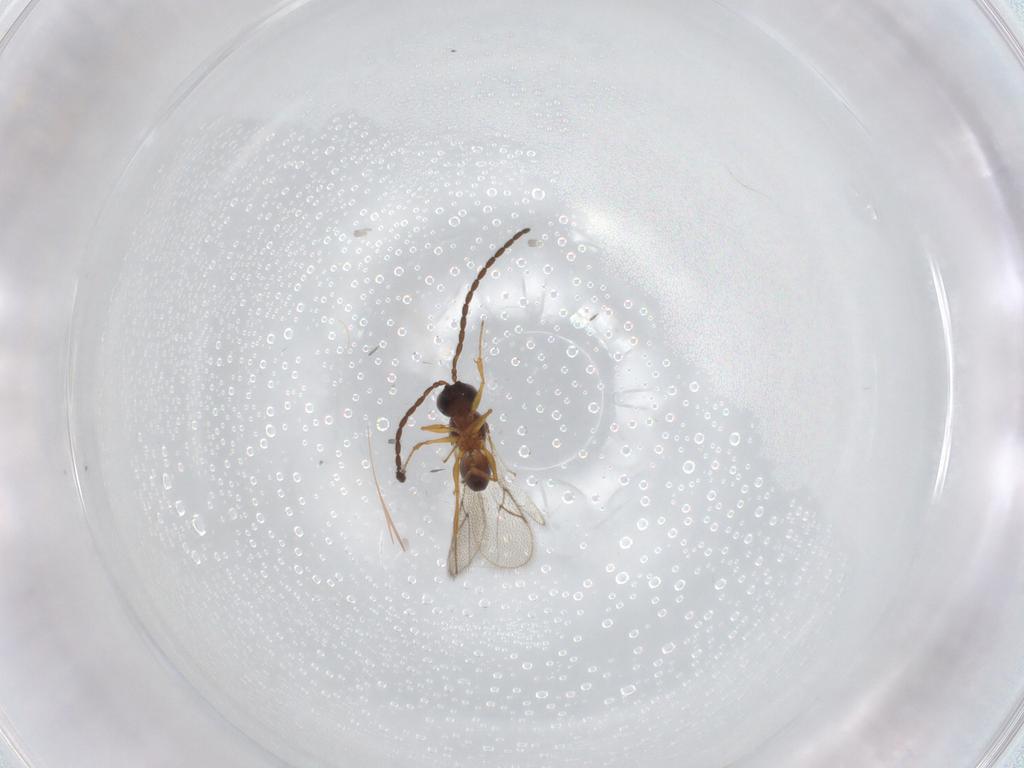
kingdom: Animalia
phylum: Arthropoda
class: Insecta
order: Hymenoptera
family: Figitidae
